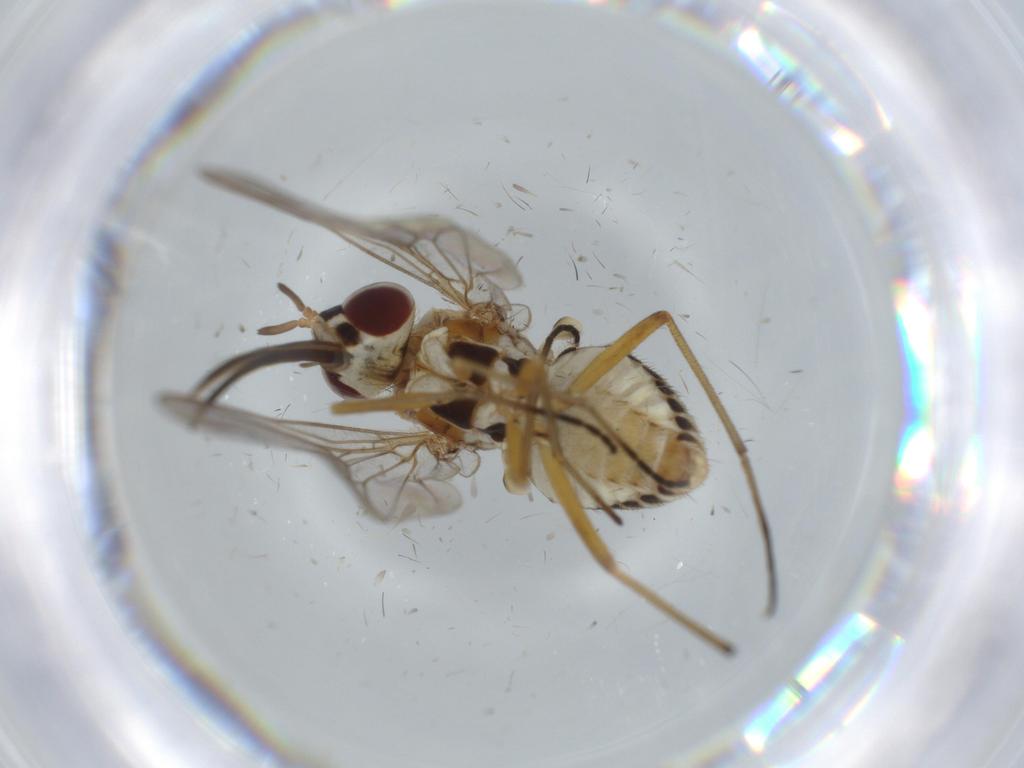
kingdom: Animalia
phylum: Arthropoda
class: Insecta
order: Diptera
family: Bombyliidae
